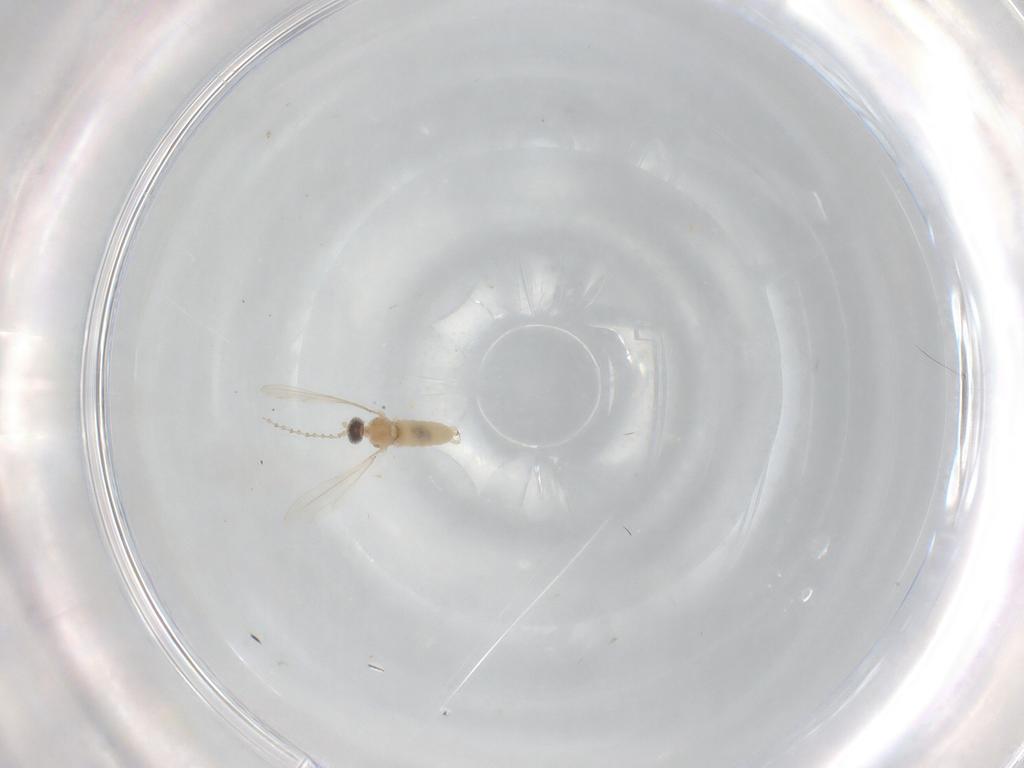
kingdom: Animalia
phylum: Arthropoda
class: Insecta
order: Diptera
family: Cecidomyiidae
